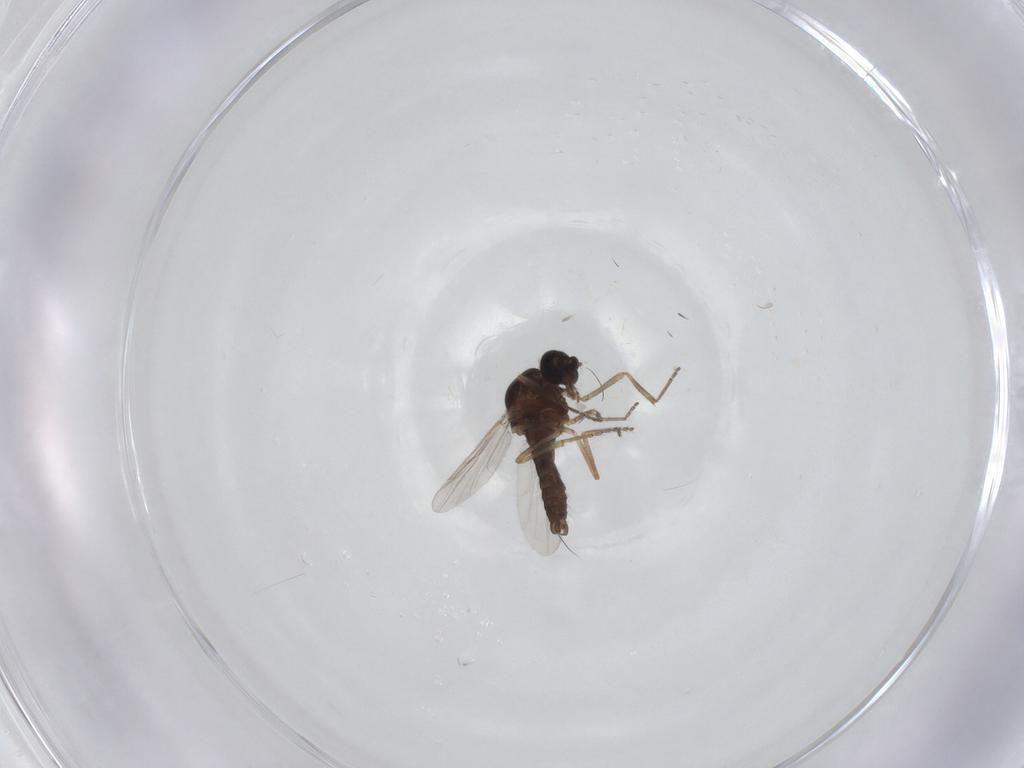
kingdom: Animalia
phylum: Arthropoda
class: Insecta
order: Diptera
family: Ceratopogonidae
